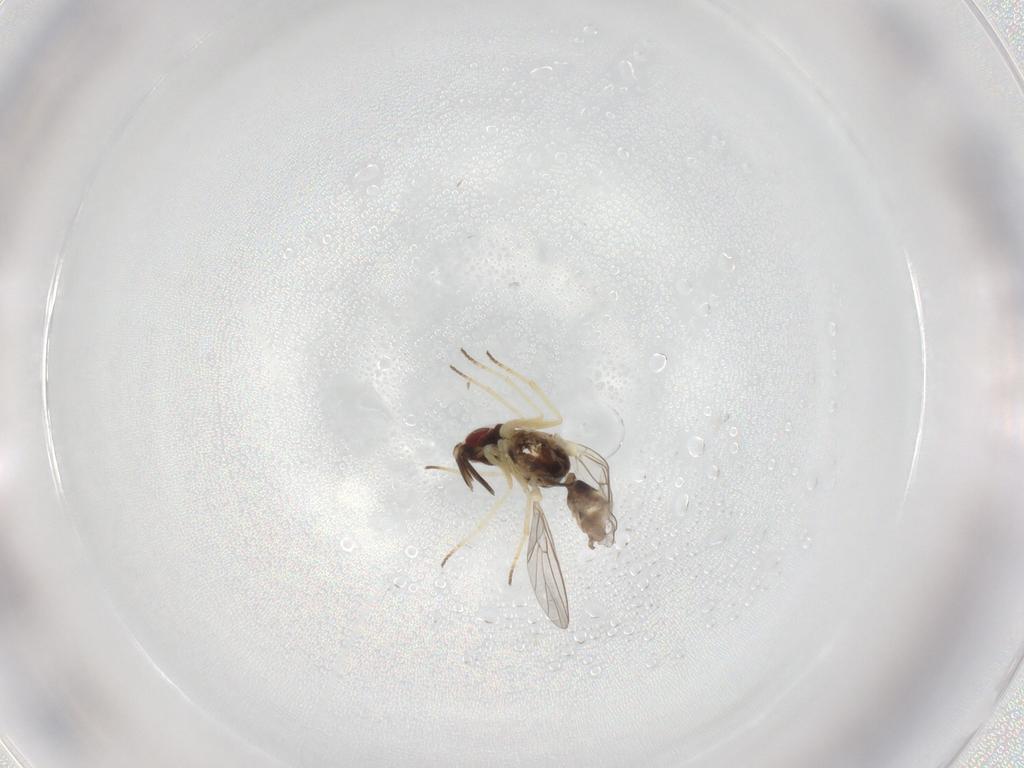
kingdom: Animalia
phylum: Arthropoda
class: Insecta
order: Diptera
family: Bombyliidae
